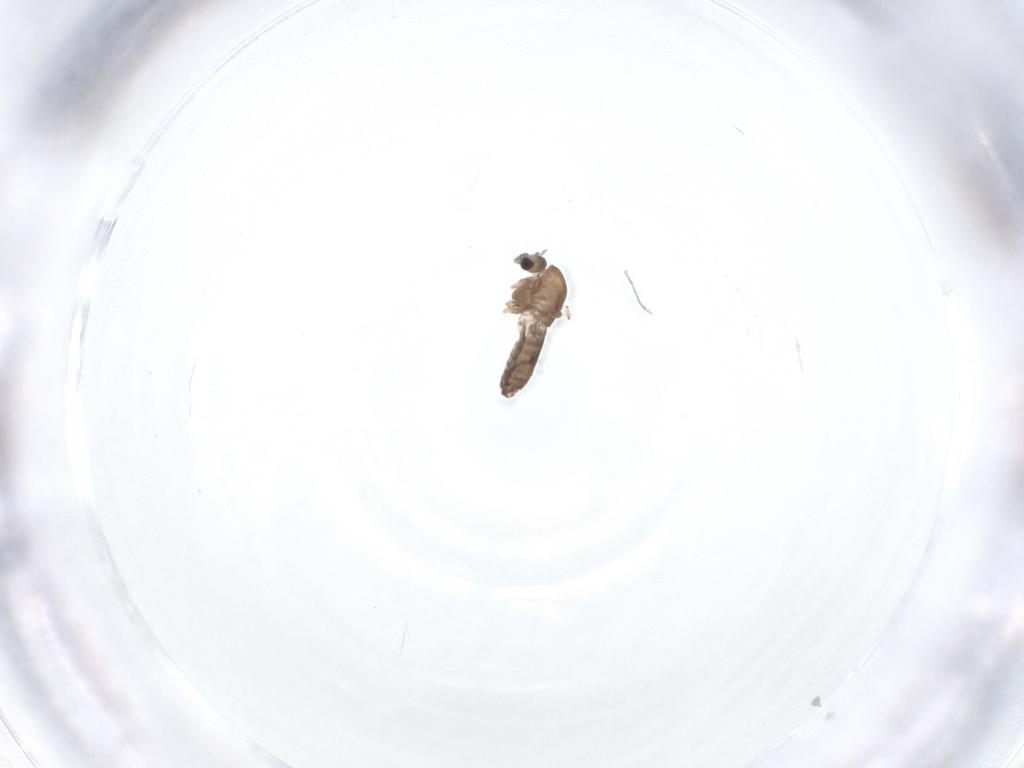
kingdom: Animalia
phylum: Arthropoda
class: Insecta
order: Diptera
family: Chironomidae
